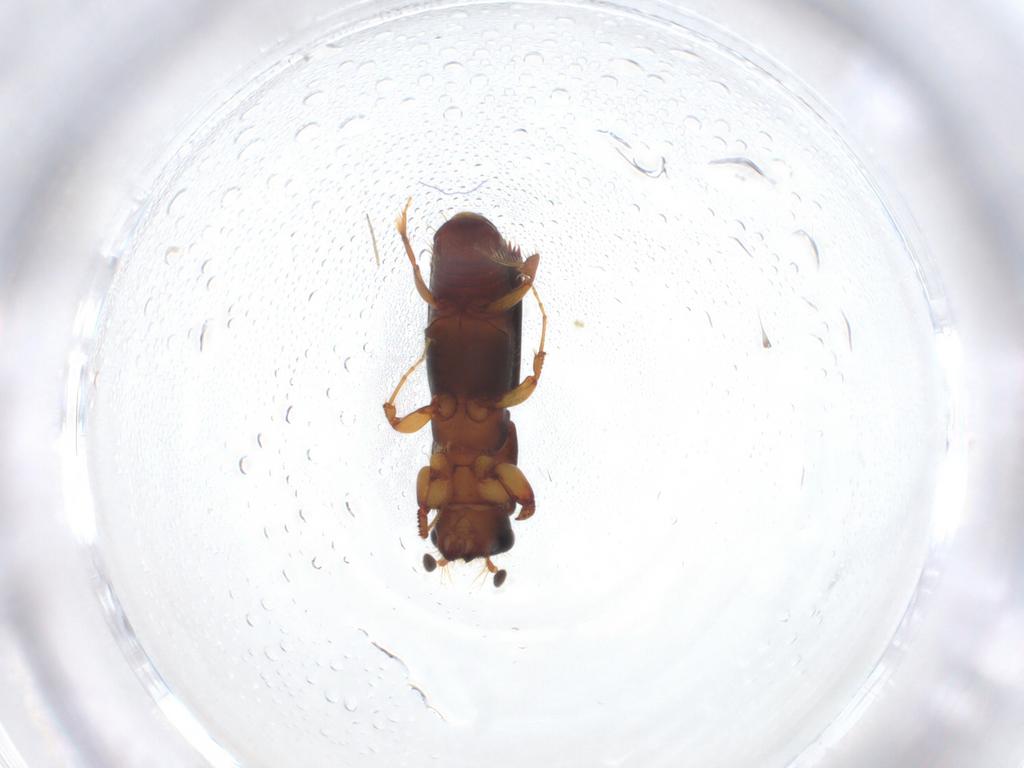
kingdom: Animalia
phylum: Arthropoda
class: Insecta
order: Coleoptera
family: Curculionidae
